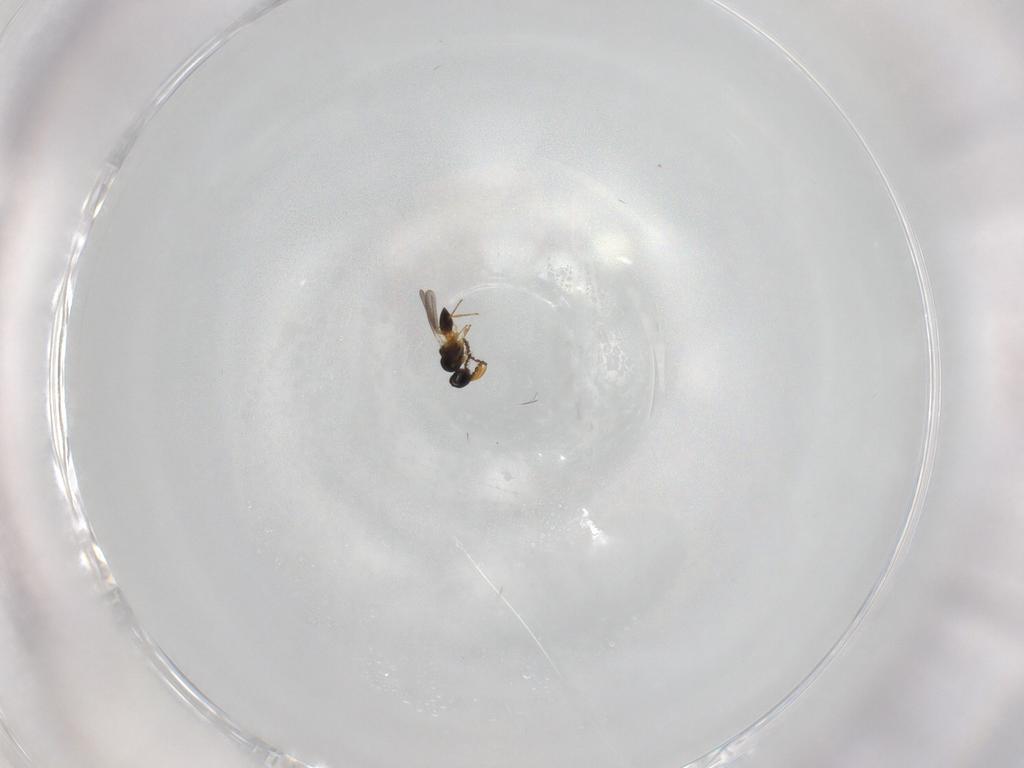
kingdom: Animalia
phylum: Arthropoda
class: Insecta
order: Hymenoptera
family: Platygastridae
